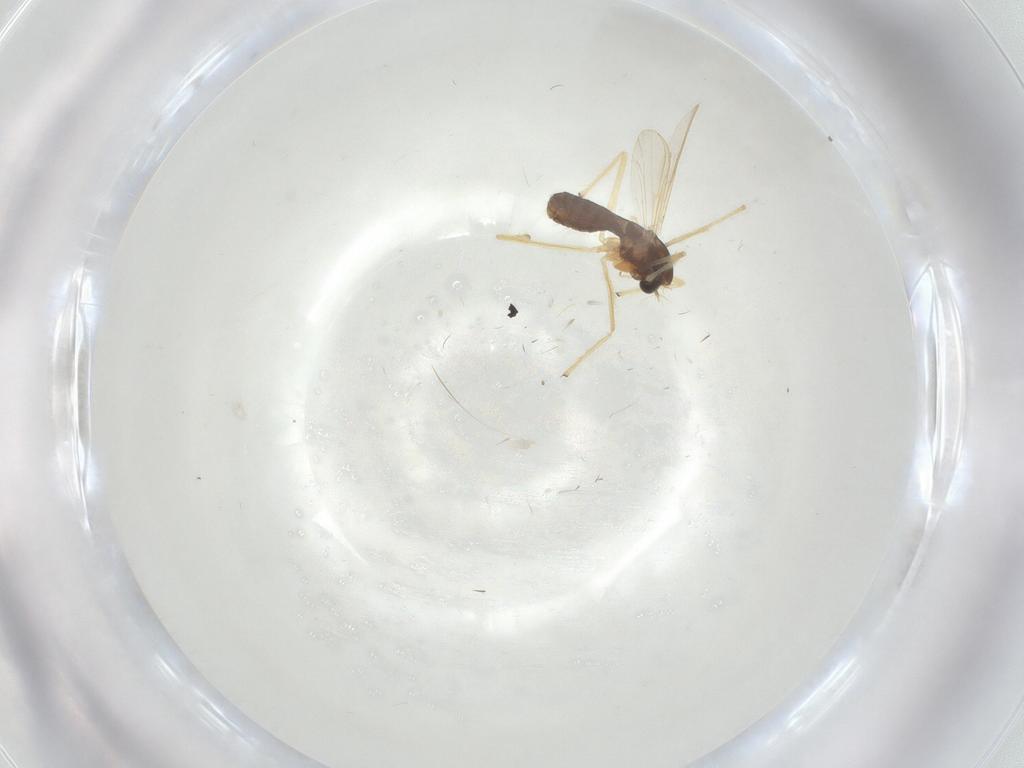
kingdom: Animalia
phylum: Arthropoda
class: Insecta
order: Diptera
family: Chironomidae
